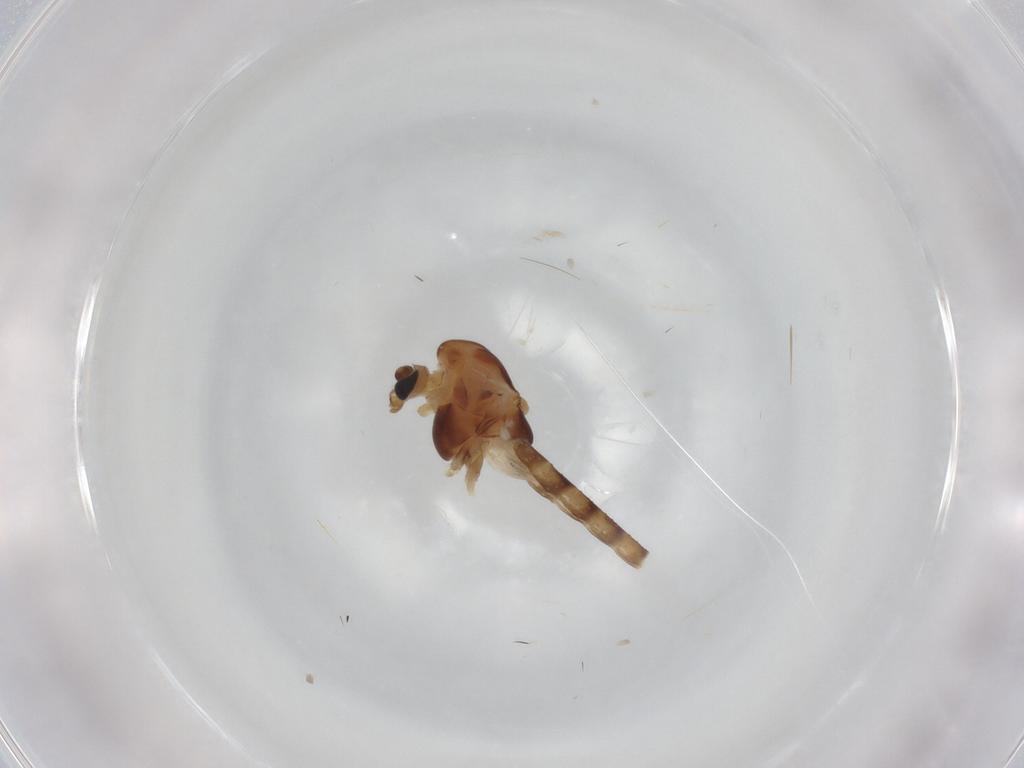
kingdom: Animalia
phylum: Arthropoda
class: Insecta
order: Diptera
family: Chironomidae
